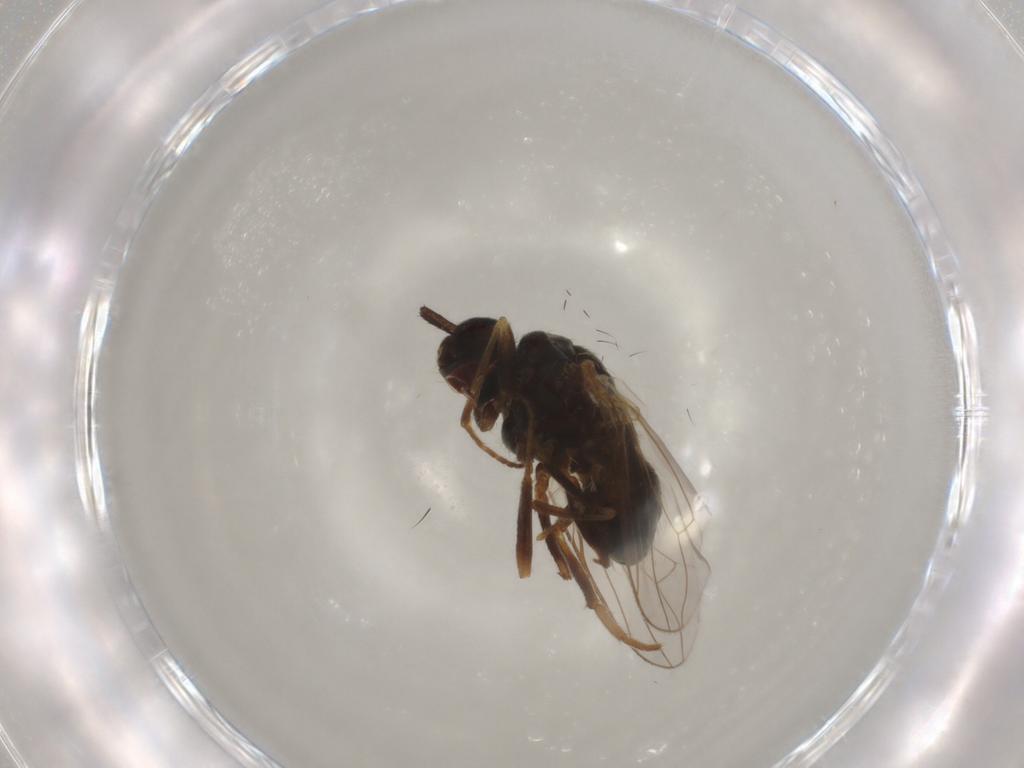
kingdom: Animalia
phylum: Arthropoda
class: Insecta
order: Diptera
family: Muscidae
